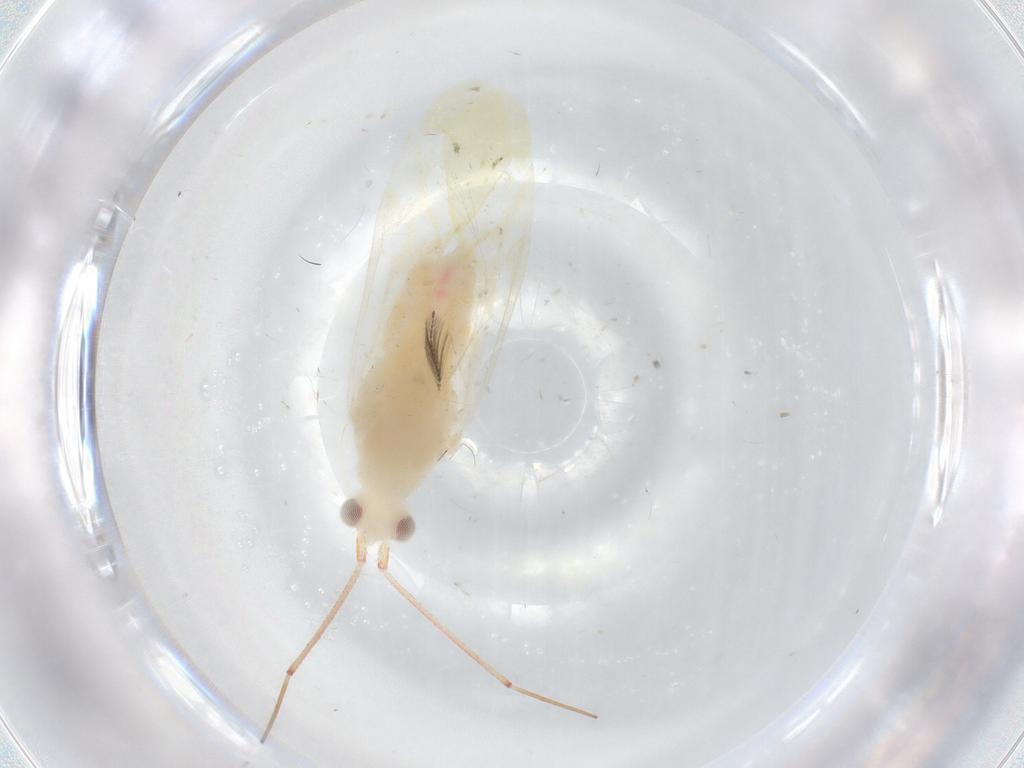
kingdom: Animalia
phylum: Arthropoda
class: Insecta
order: Hemiptera
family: Miridae
